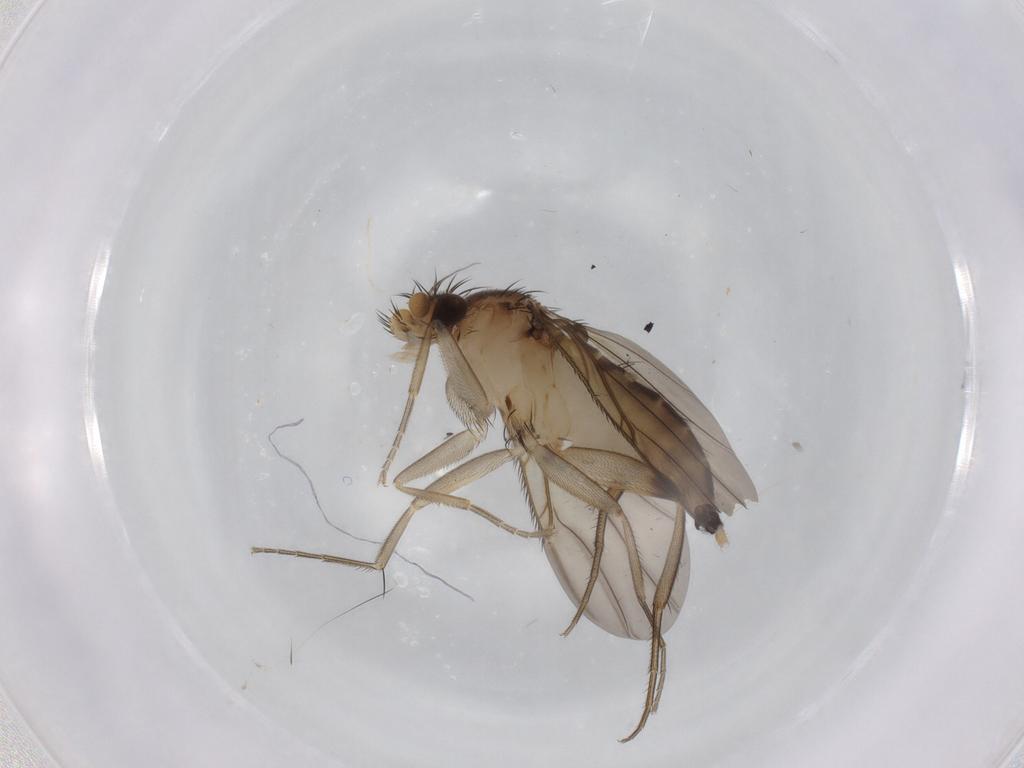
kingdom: Animalia
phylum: Arthropoda
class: Insecta
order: Diptera
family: Phoridae
